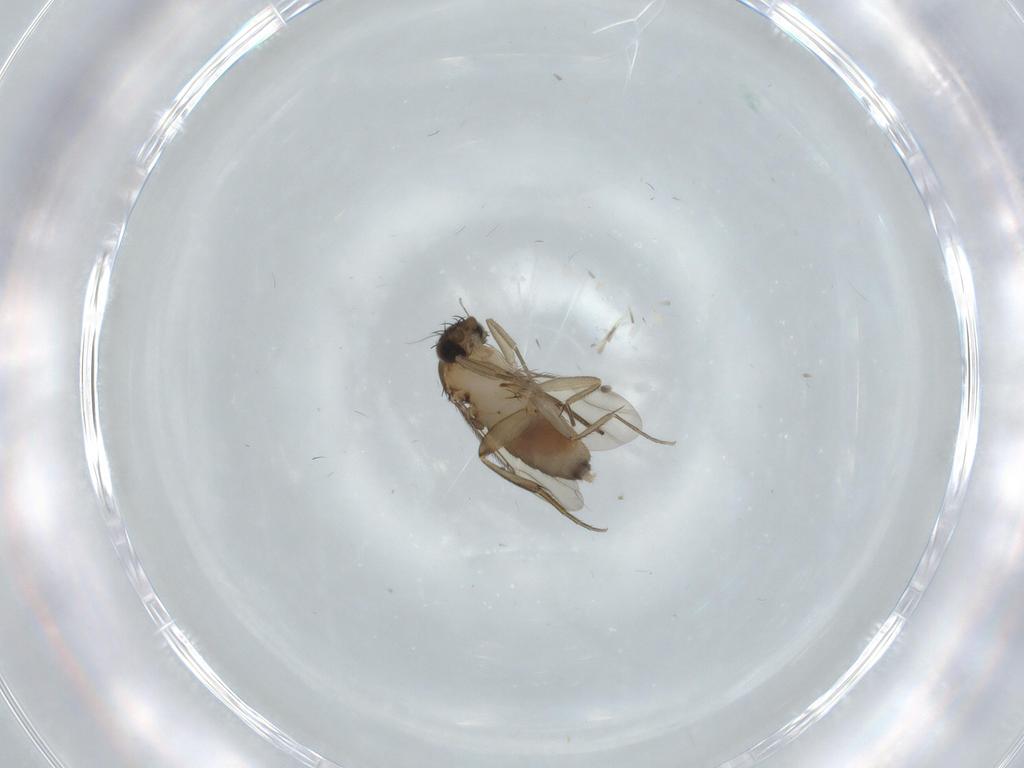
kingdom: Animalia
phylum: Arthropoda
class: Insecta
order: Diptera
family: Phoridae
